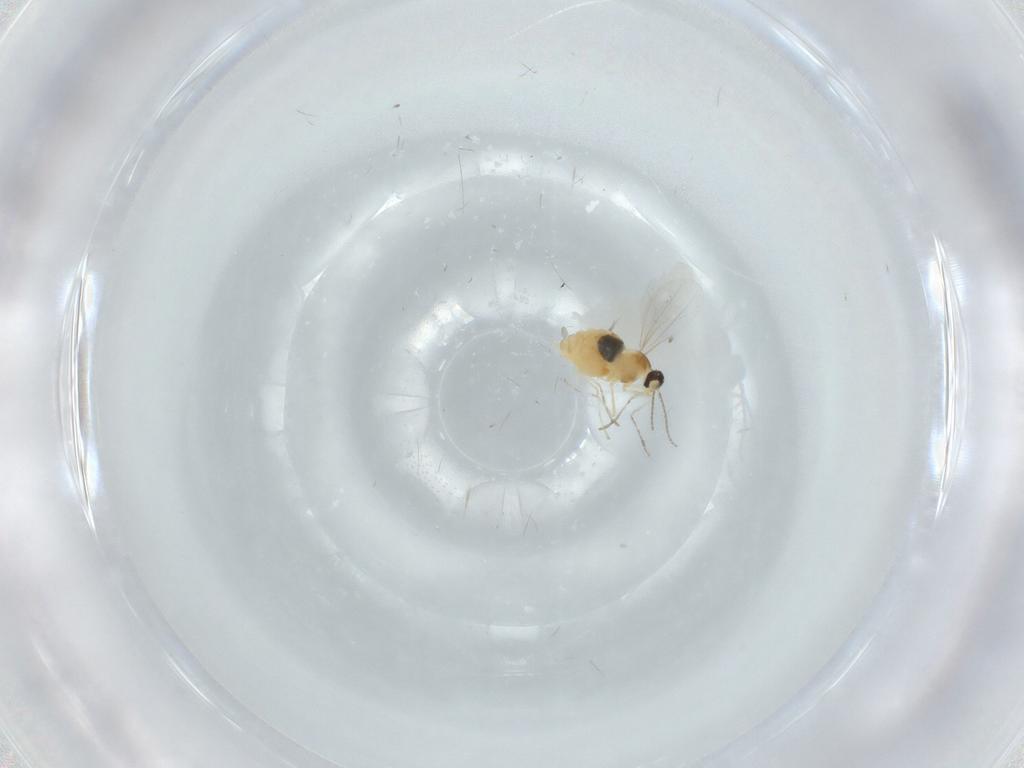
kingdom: Animalia
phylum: Arthropoda
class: Insecta
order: Diptera
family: Cecidomyiidae
